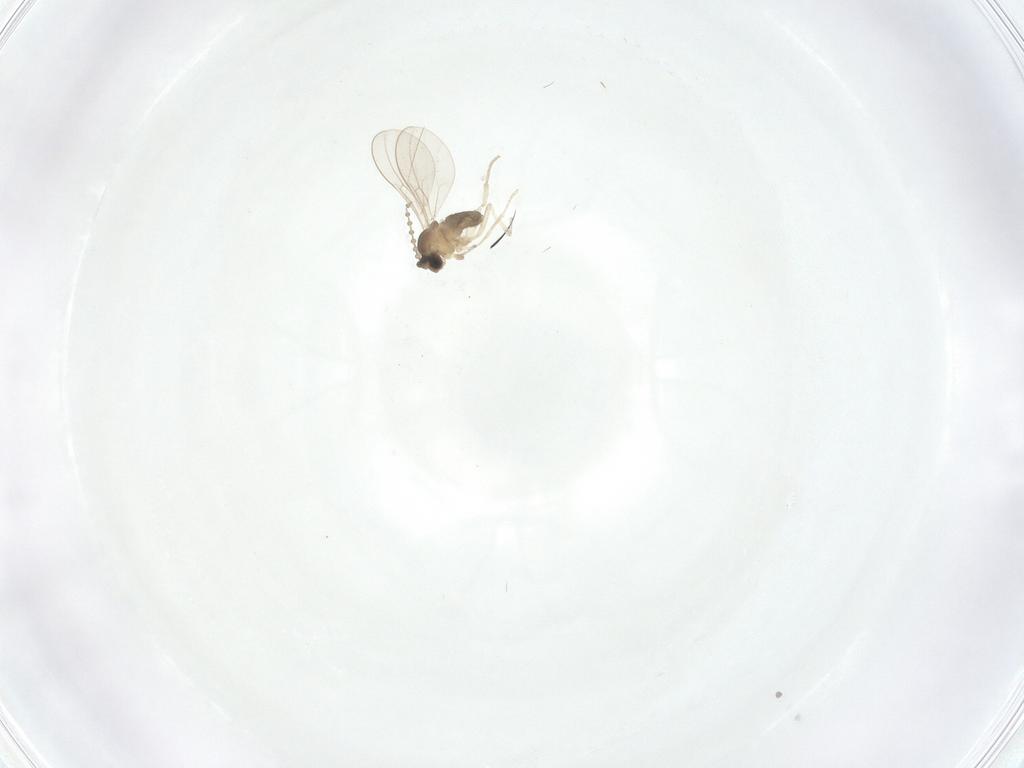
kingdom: Animalia
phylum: Arthropoda
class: Insecta
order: Diptera
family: Cecidomyiidae
